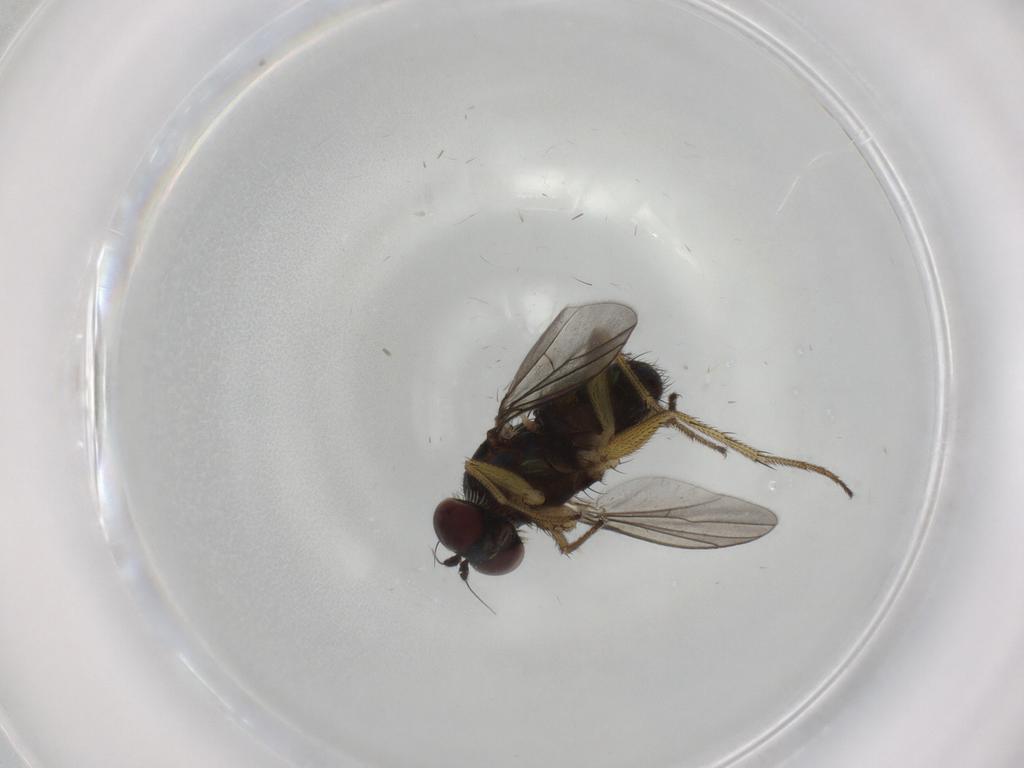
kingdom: Animalia
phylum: Arthropoda
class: Insecta
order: Diptera
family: Dolichopodidae
